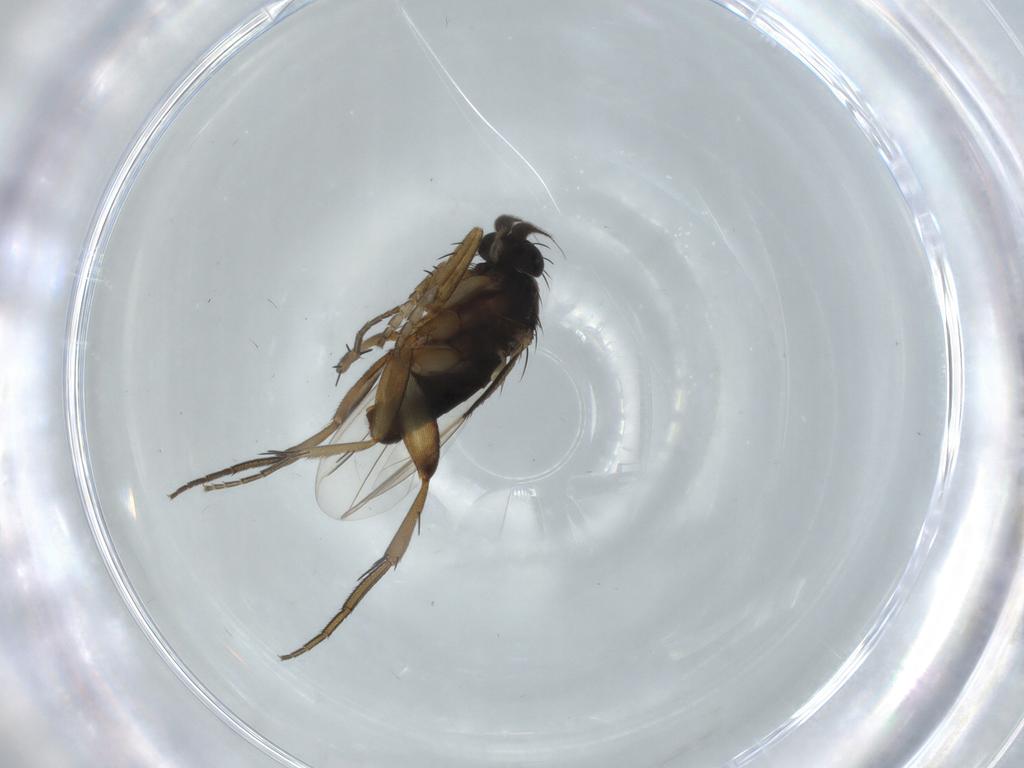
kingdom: Animalia
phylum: Arthropoda
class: Insecta
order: Diptera
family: Phoridae
